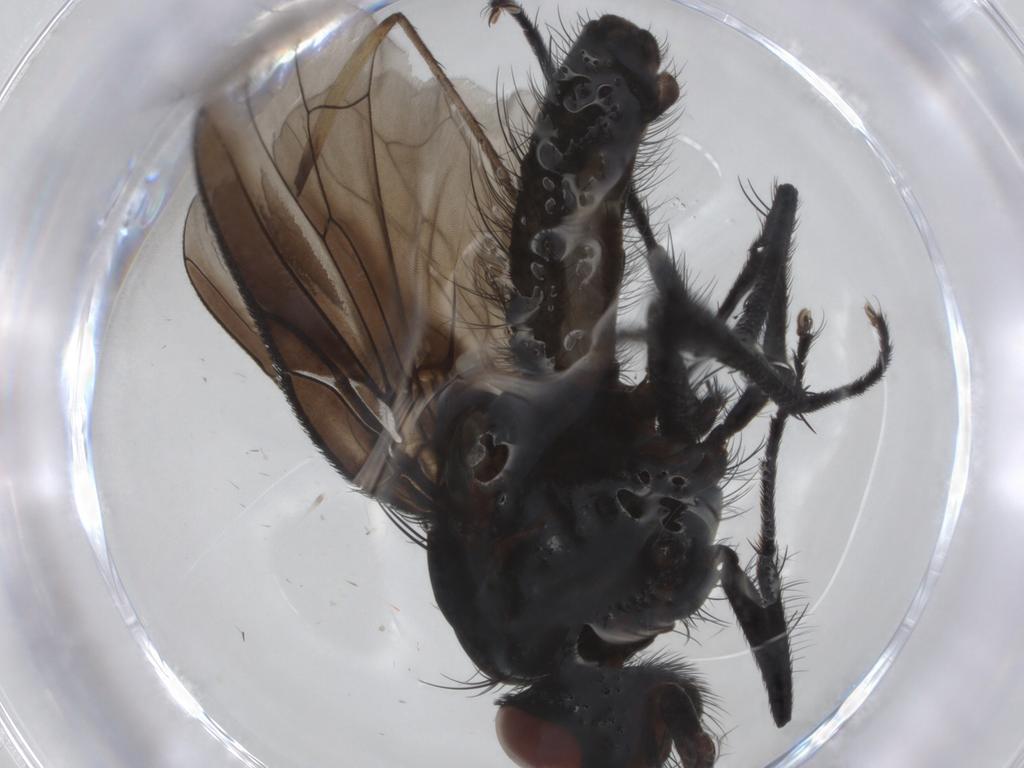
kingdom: Animalia
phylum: Arthropoda
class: Insecta
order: Diptera
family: Anthomyiidae
